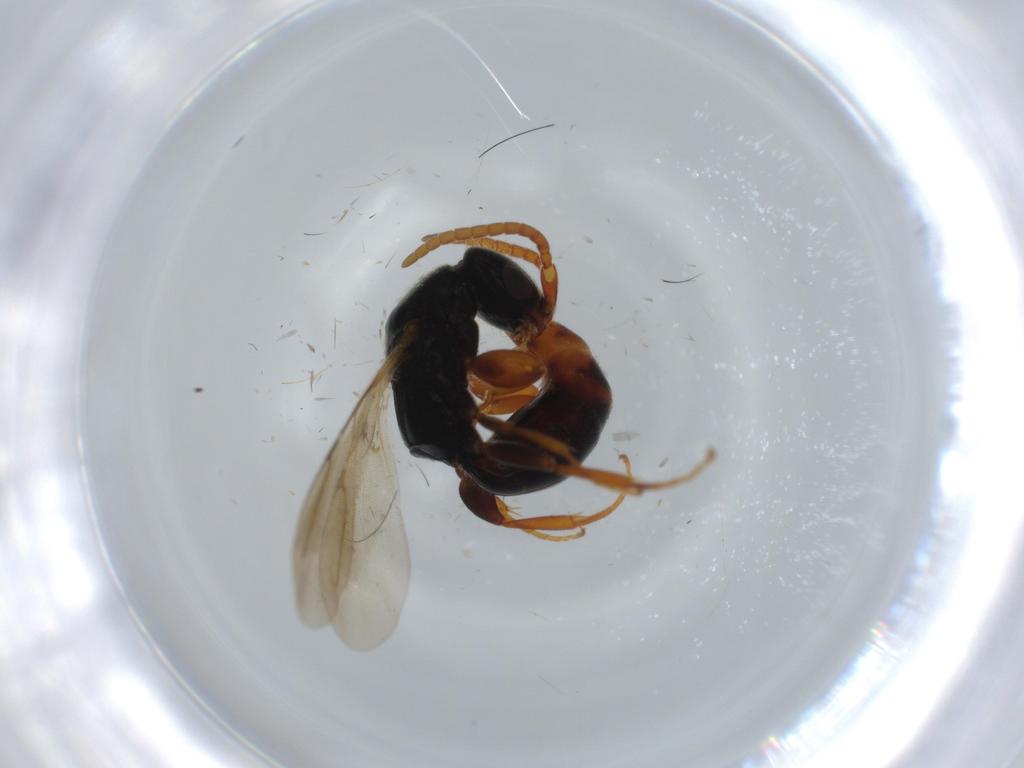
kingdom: Animalia
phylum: Arthropoda
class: Insecta
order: Hymenoptera
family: Bethylidae
